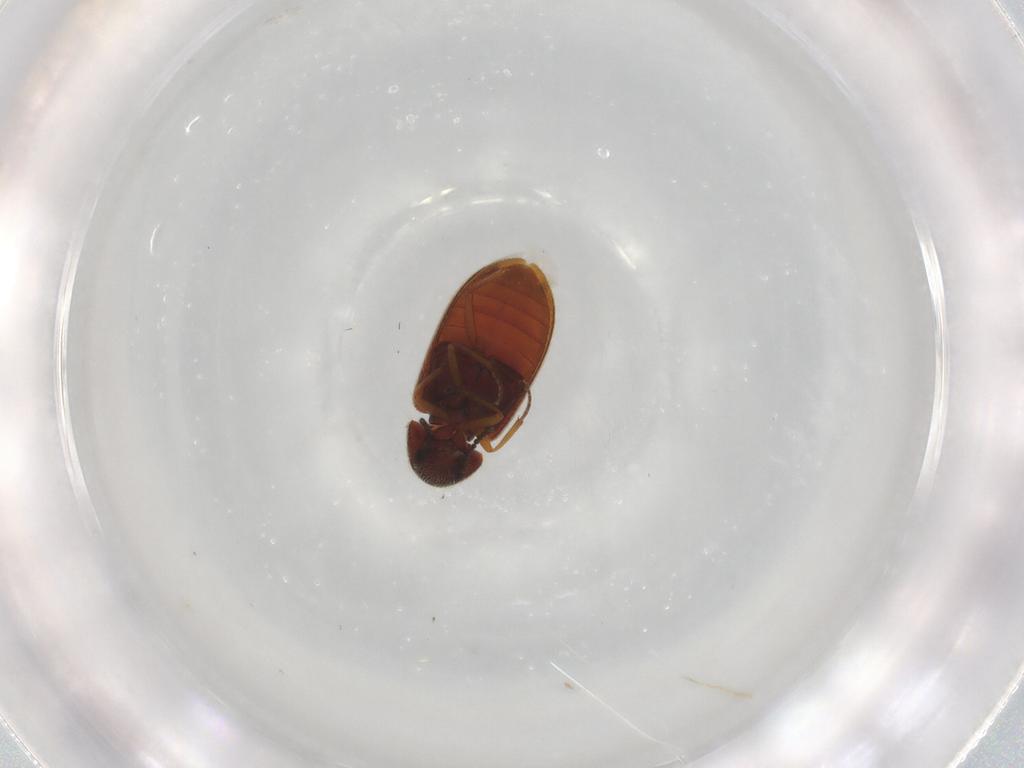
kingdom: Animalia
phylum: Arthropoda
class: Insecta
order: Coleoptera
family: Rhadalidae
